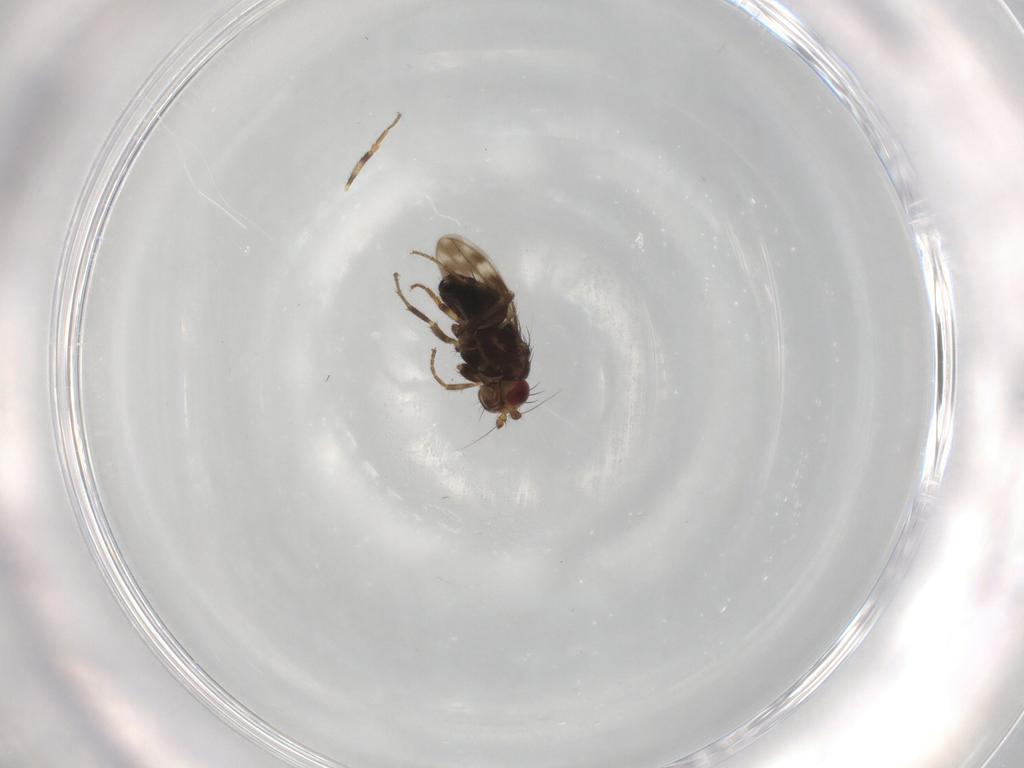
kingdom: Animalia
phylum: Arthropoda
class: Insecta
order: Diptera
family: Sphaeroceridae
